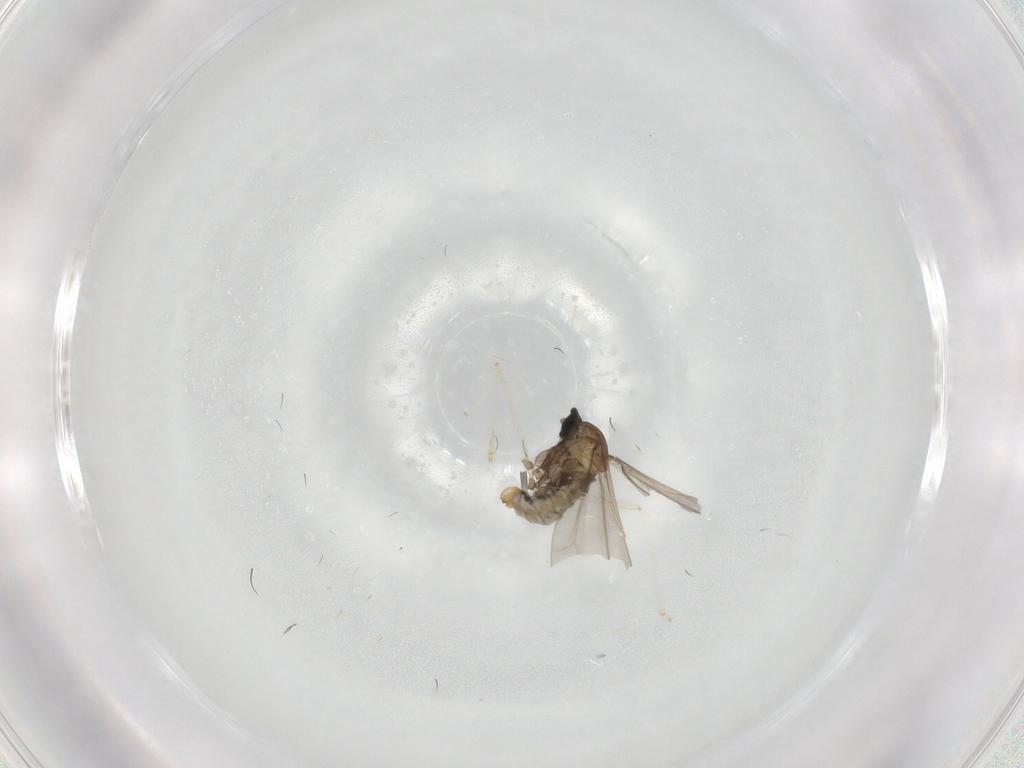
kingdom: Animalia
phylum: Arthropoda
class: Insecta
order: Diptera
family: Cecidomyiidae
